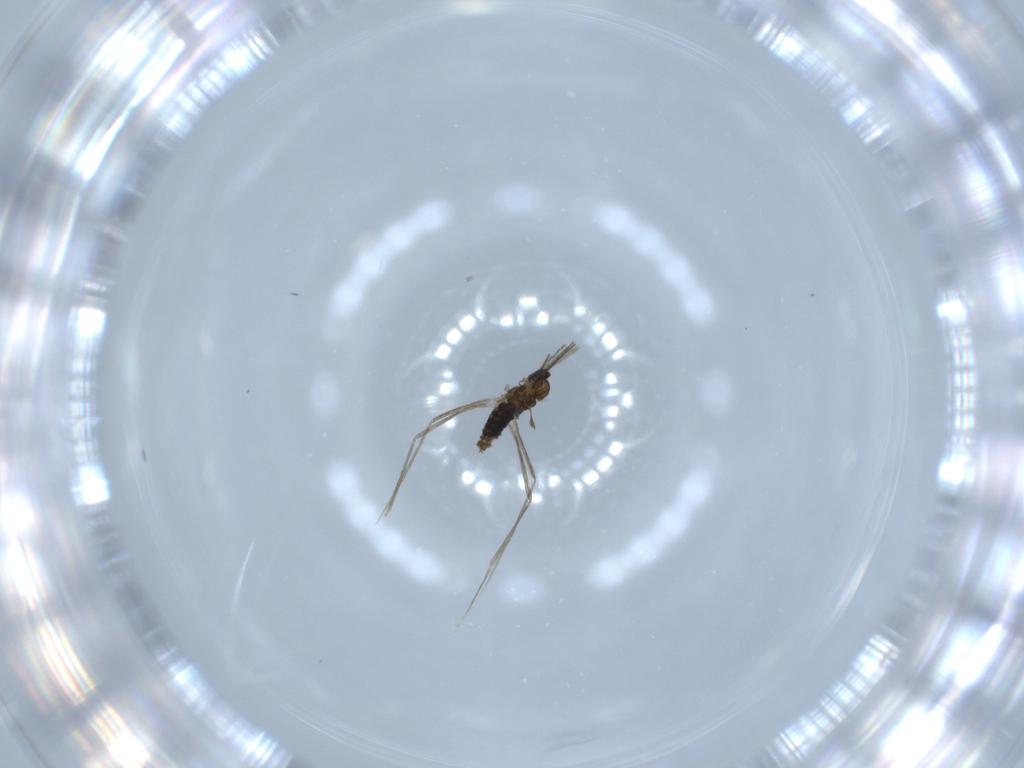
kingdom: Animalia
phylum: Arthropoda
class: Insecta
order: Diptera
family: Cecidomyiidae
